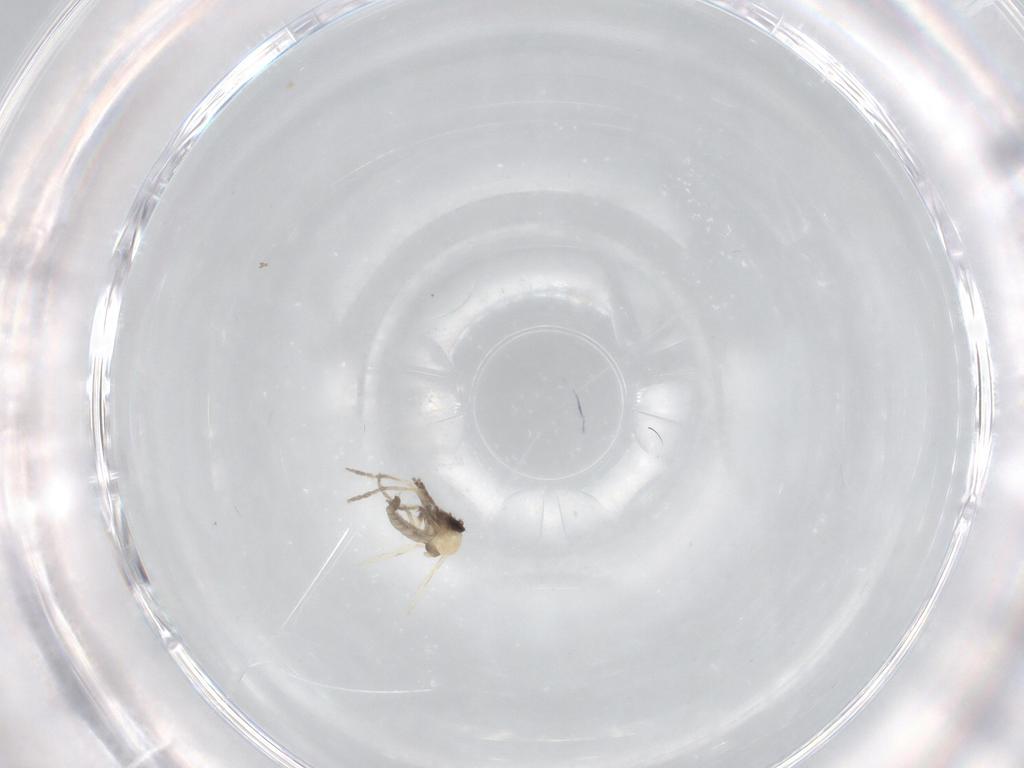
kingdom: Animalia
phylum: Arthropoda
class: Insecta
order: Diptera
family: Ceratopogonidae
